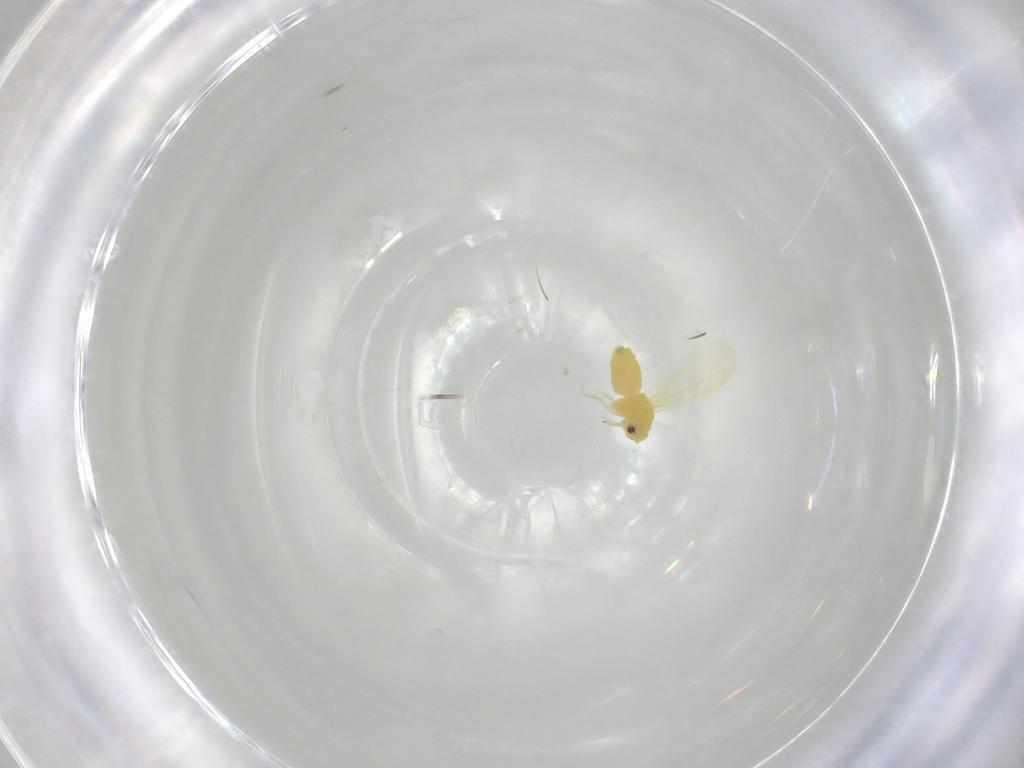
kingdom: Animalia
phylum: Arthropoda
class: Insecta
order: Hemiptera
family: Aleyrodidae
